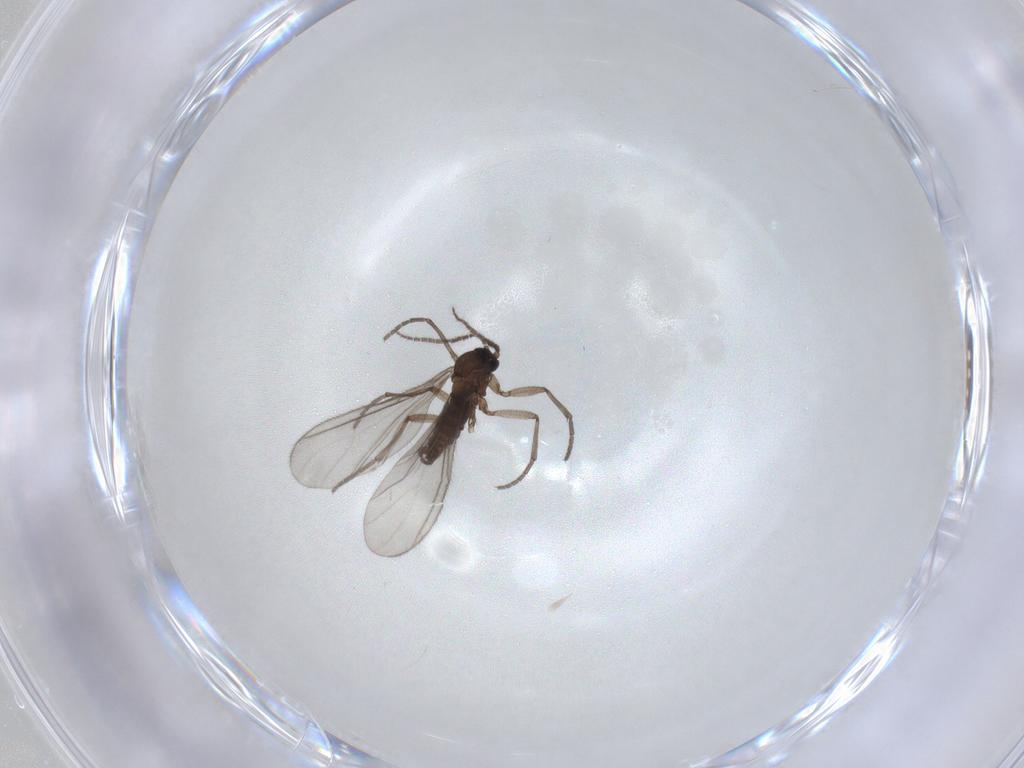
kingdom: Animalia
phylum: Arthropoda
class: Insecta
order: Diptera
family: Sciaridae
